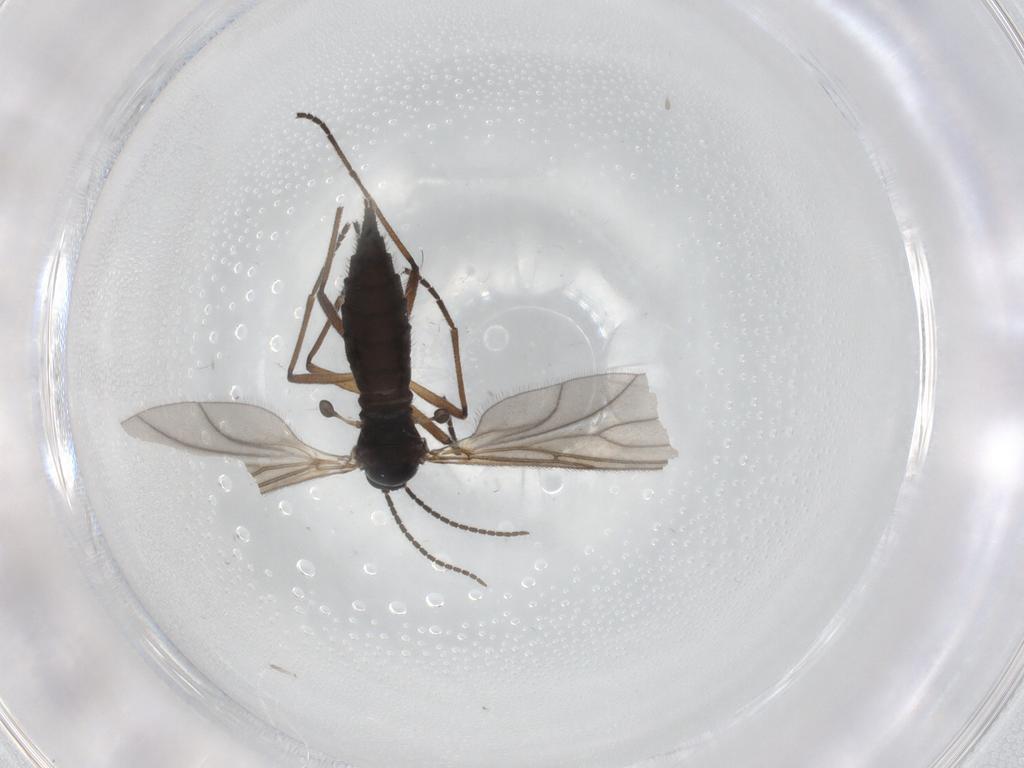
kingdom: Animalia
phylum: Arthropoda
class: Insecta
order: Diptera
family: Sciaridae
